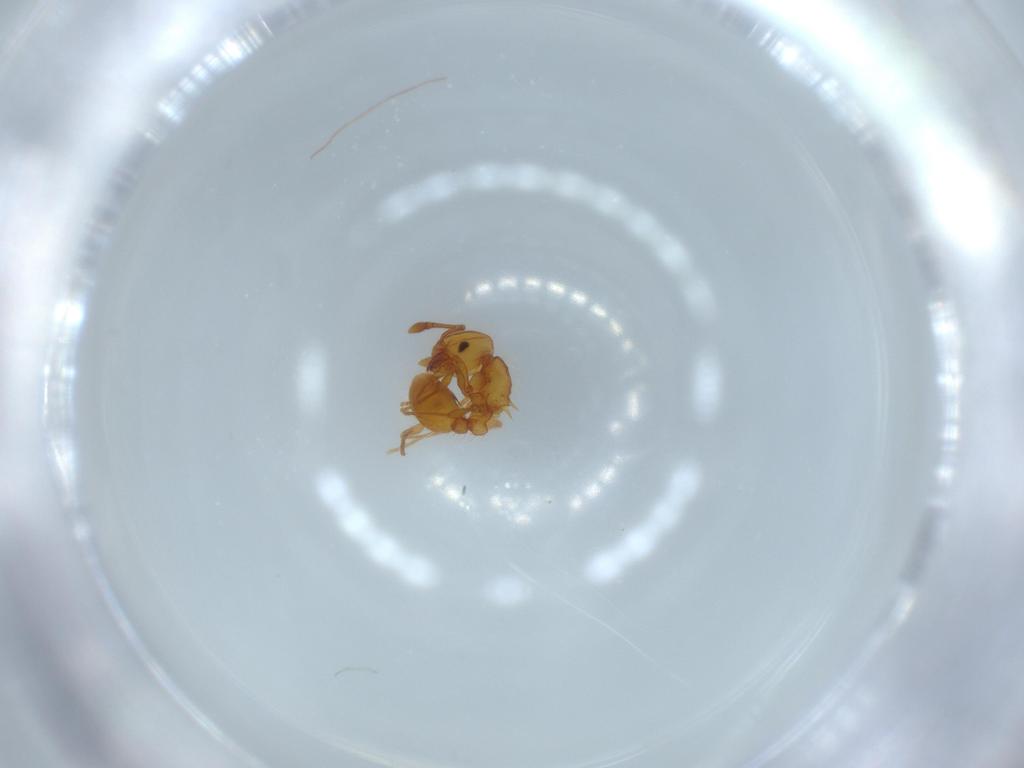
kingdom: Animalia
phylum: Arthropoda
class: Insecta
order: Hymenoptera
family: Formicidae
